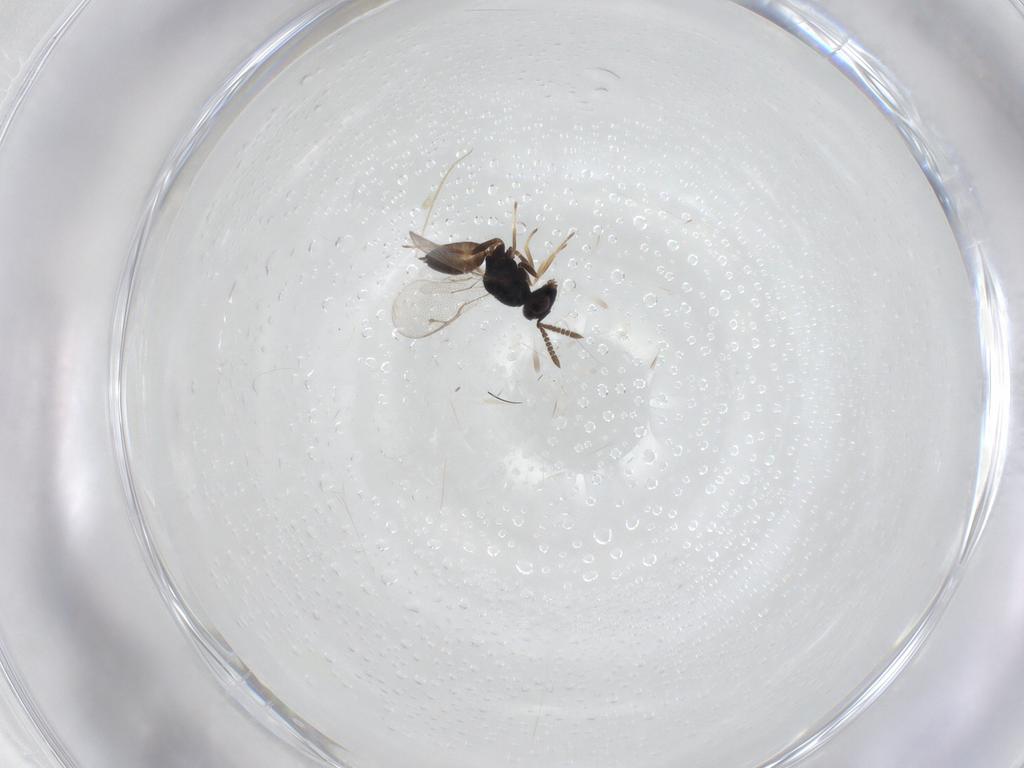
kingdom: Animalia
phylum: Arthropoda
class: Insecta
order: Hymenoptera
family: Pteromalidae
